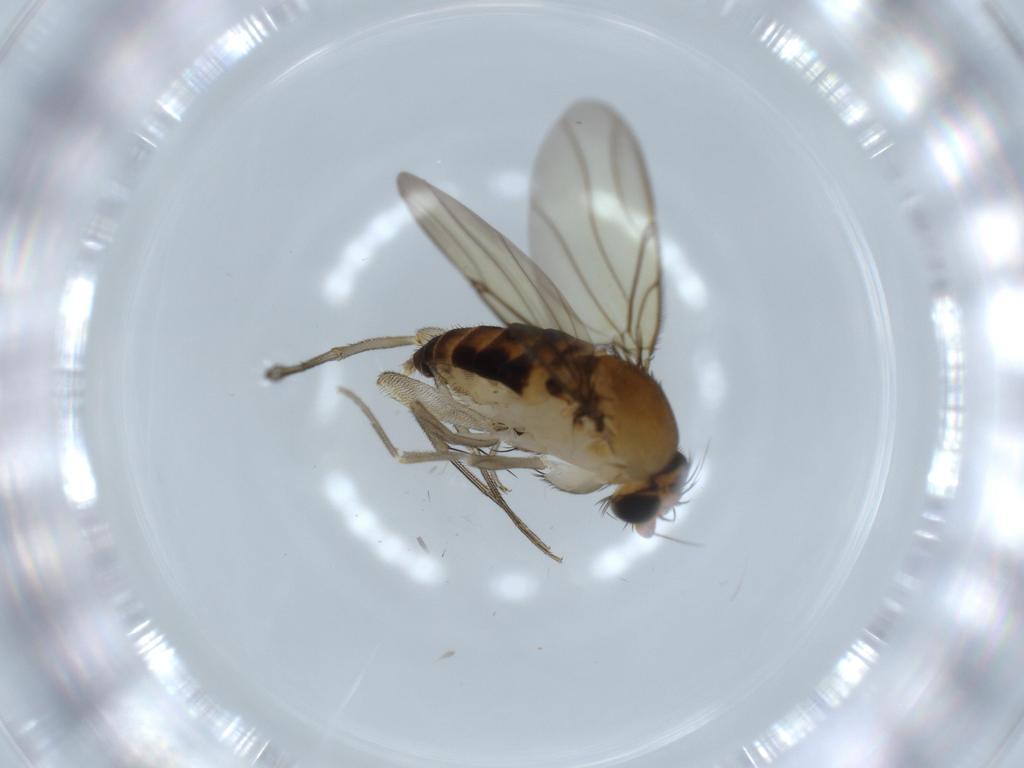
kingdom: Animalia
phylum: Arthropoda
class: Insecta
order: Diptera
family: Phoridae
